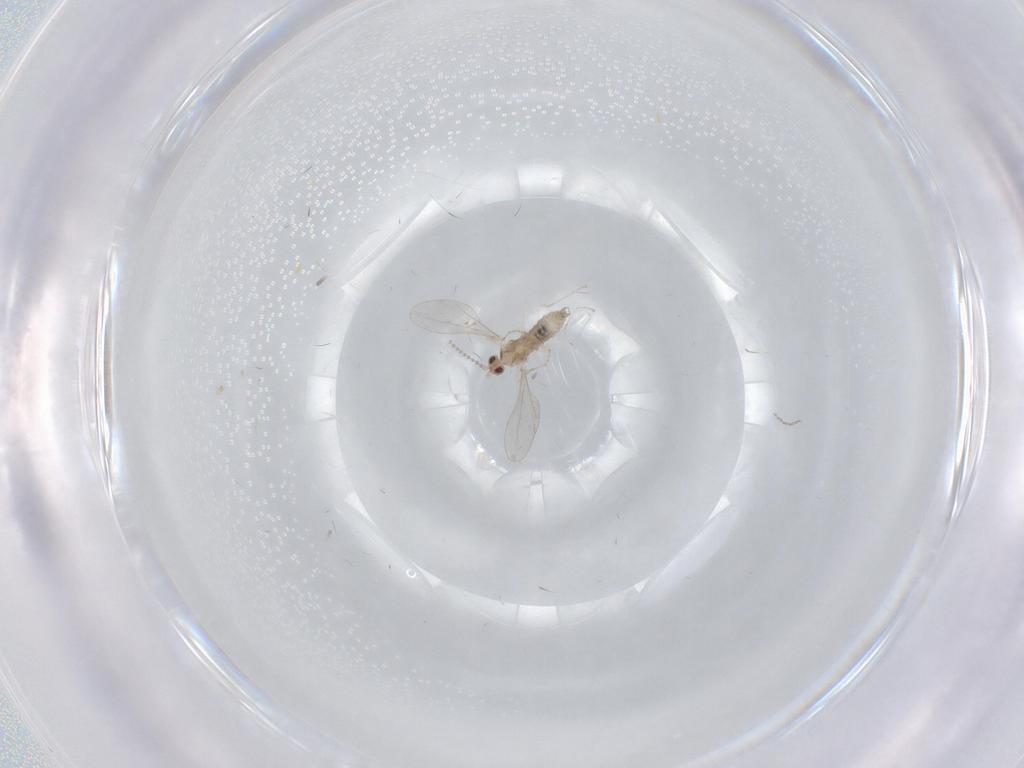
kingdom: Animalia
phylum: Arthropoda
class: Insecta
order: Diptera
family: Cecidomyiidae
